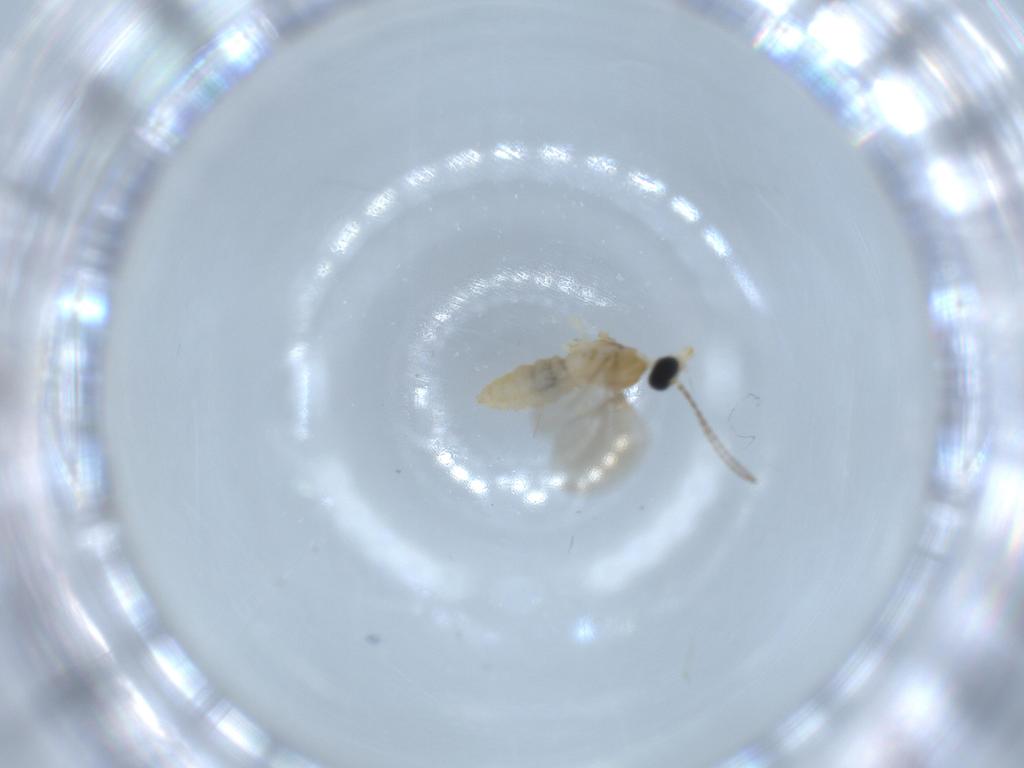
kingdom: Animalia
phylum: Arthropoda
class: Insecta
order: Diptera
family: Cecidomyiidae
